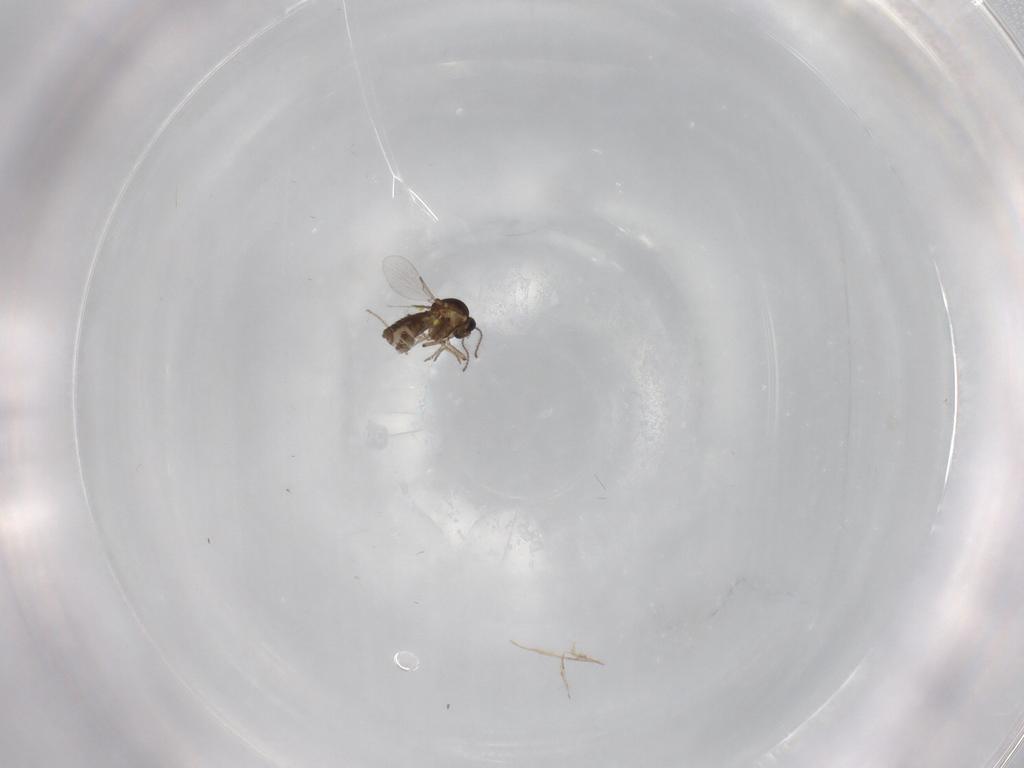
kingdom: Animalia
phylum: Arthropoda
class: Insecta
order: Diptera
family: Ceratopogonidae
